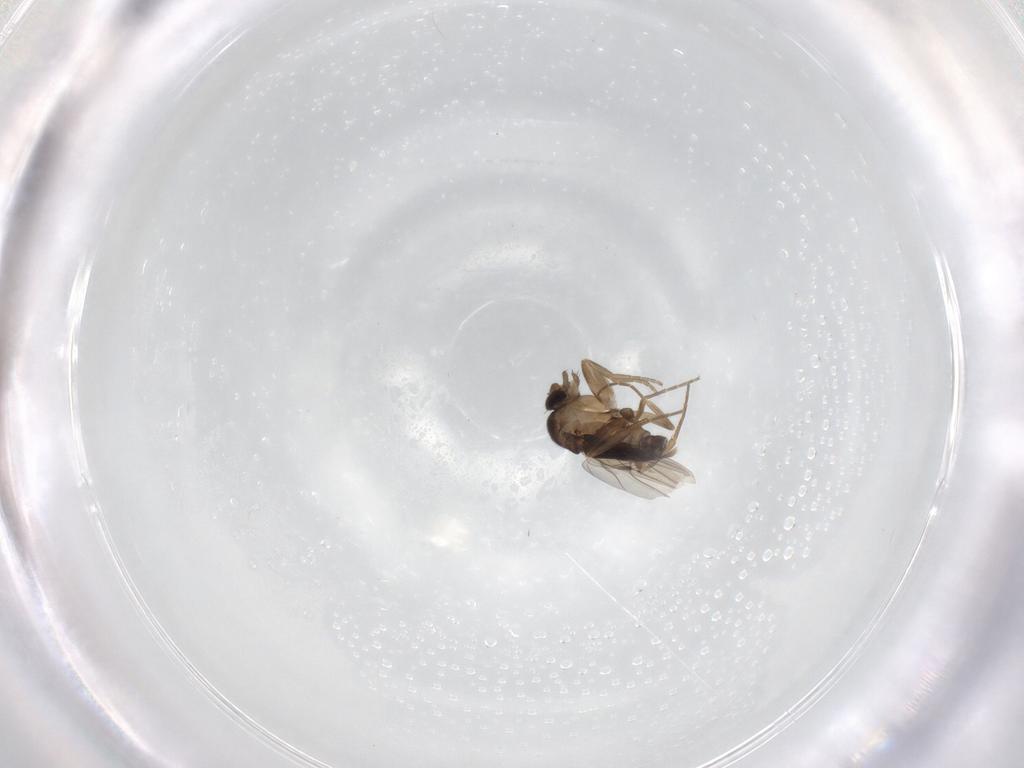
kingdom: Animalia
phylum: Arthropoda
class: Insecta
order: Diptera
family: Phoridae
